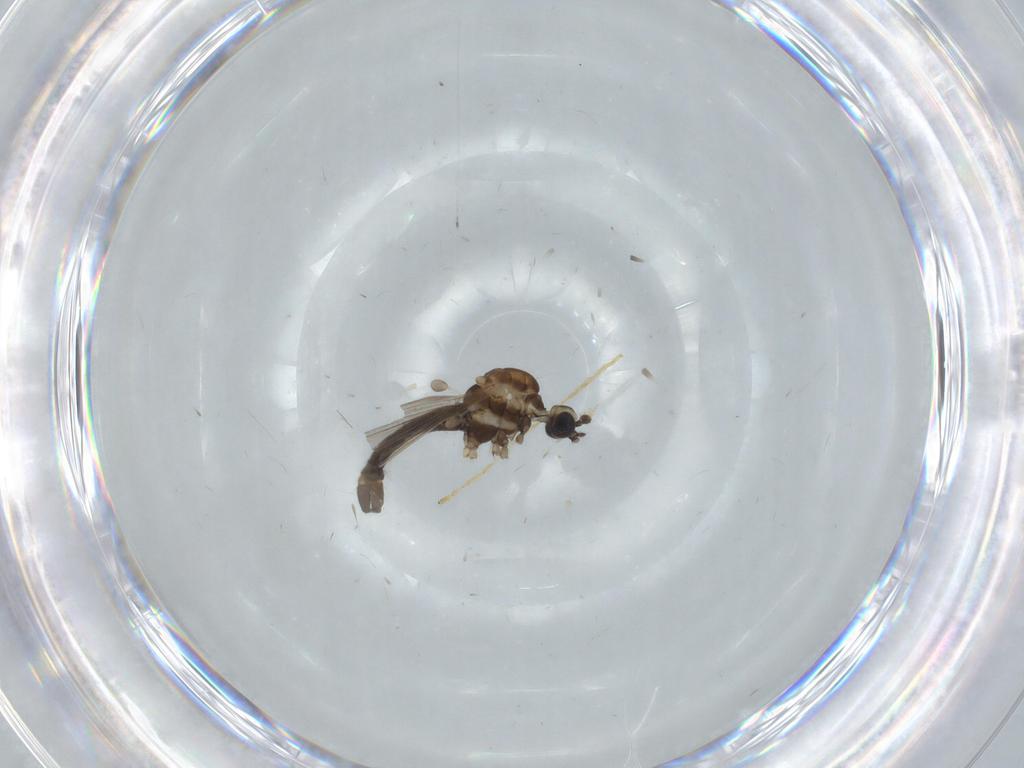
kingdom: Animalia
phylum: Arthropoda
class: Insecta
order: Diptera
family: Limoniidae
